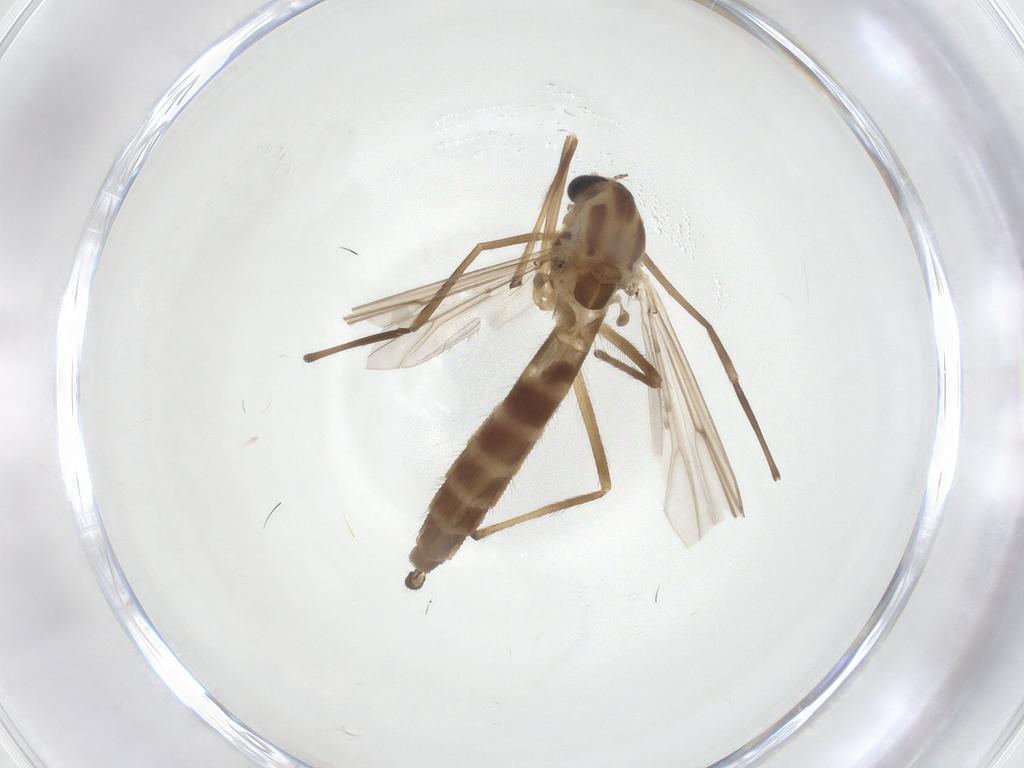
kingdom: Animalia
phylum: Arthropoda
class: Insecta
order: Diptera
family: Chironomidae
